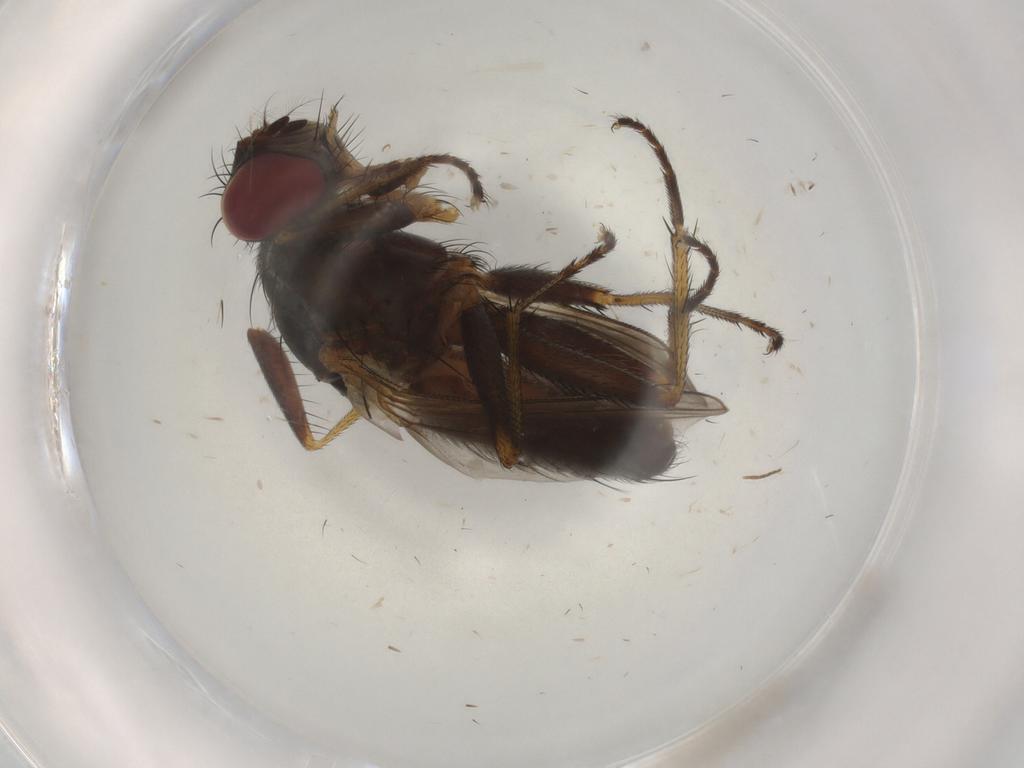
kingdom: Animalia
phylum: Arthropoda
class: Insecta
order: Diptera
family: Muscidae
